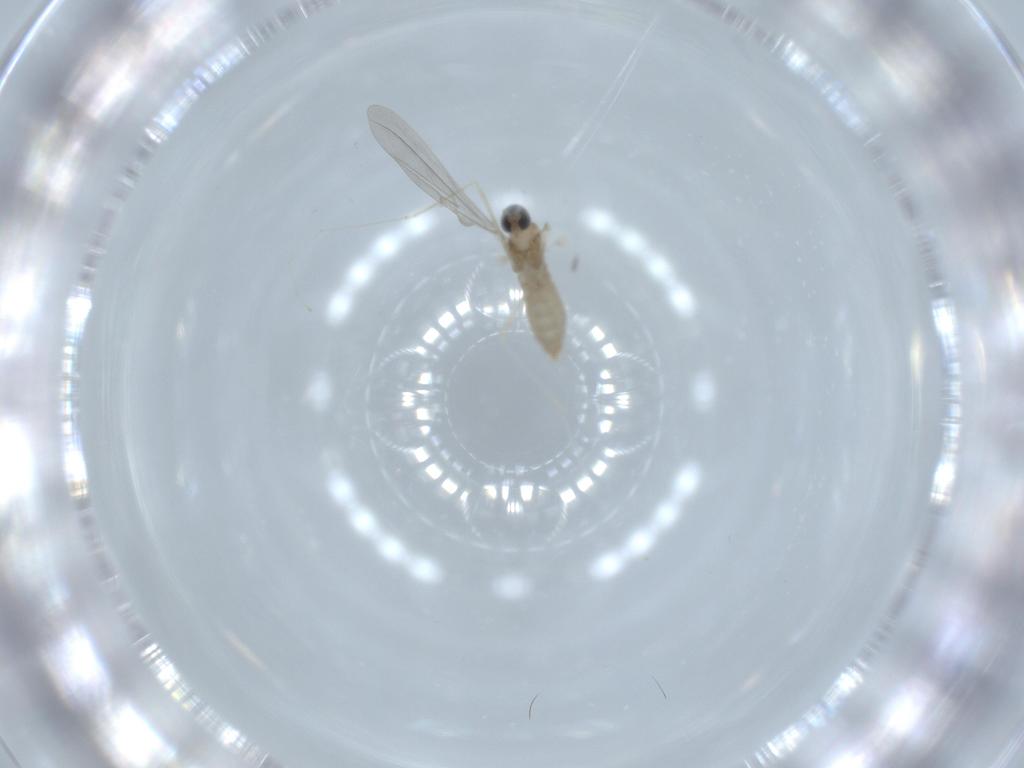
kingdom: Animalia
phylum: Arthropoda
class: Insecta
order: Diptera
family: Cecidomyiidae
